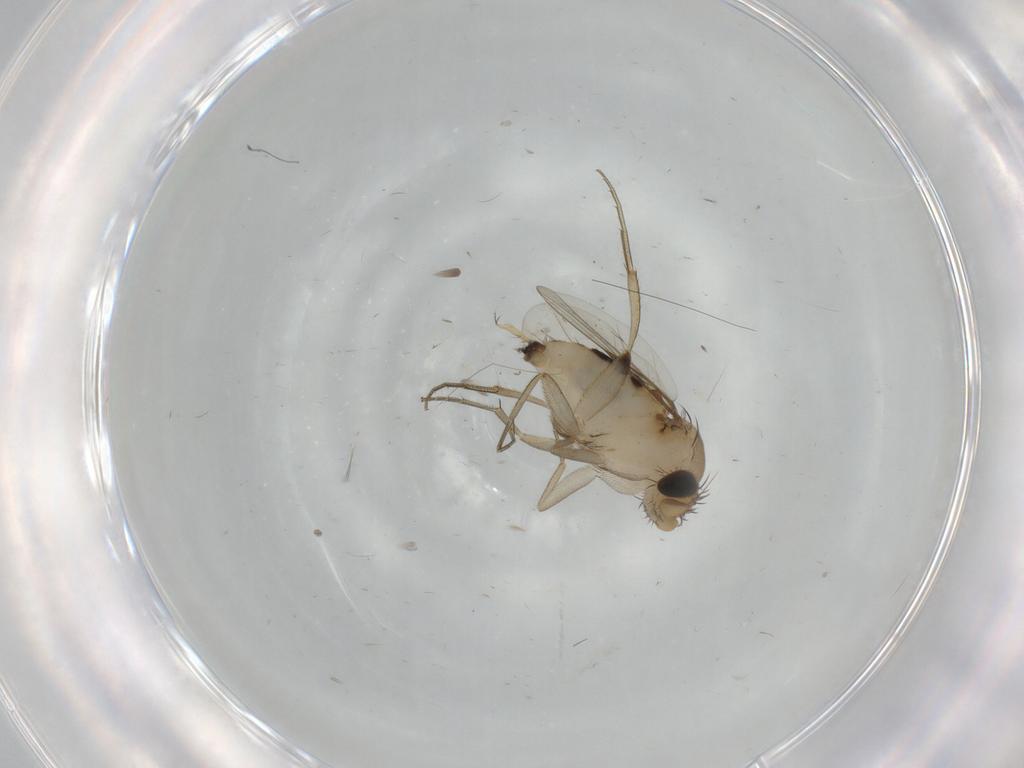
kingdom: Animalia
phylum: Arthropoda
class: Insecta
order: Diptera
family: Phoridae
